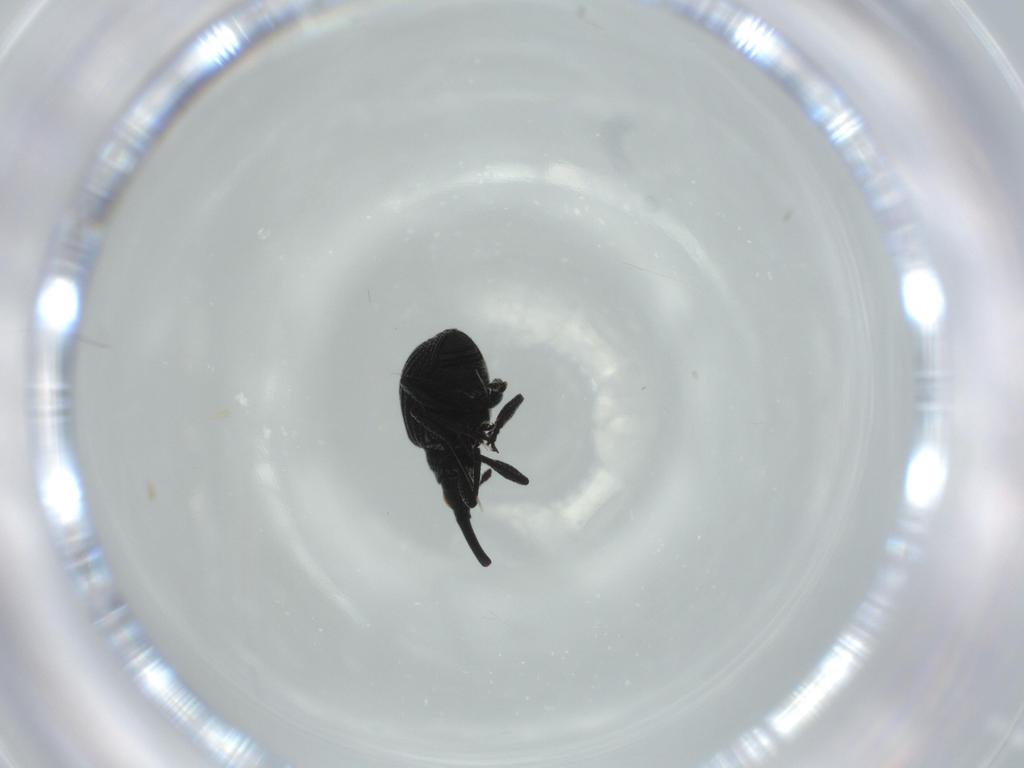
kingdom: Animalia
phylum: Arthropoda
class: Insecta
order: Coleoptera
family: Brentidae
